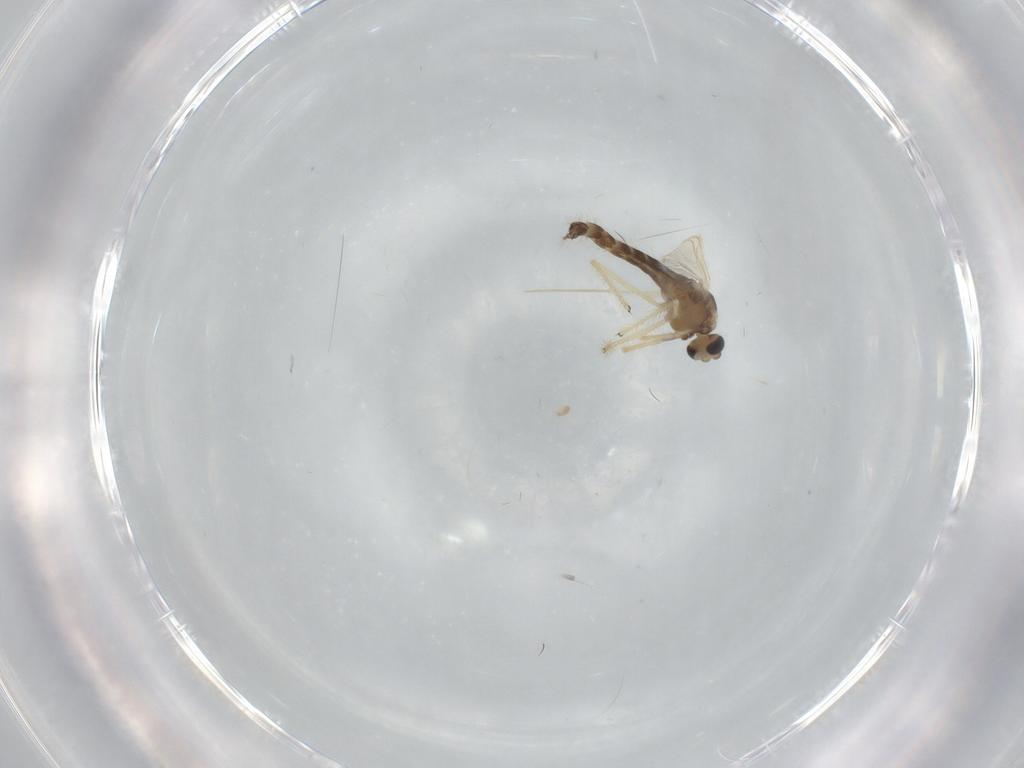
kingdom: Animalia
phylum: Arthropoda
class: Insecta
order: Diptera
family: Chironomidae
